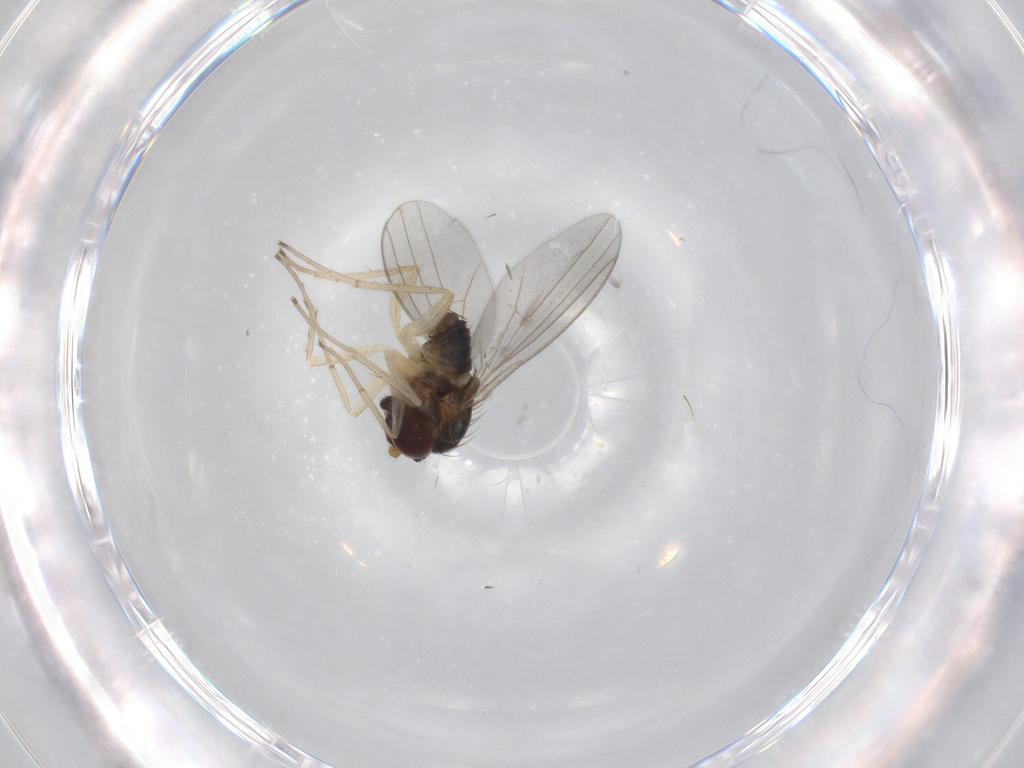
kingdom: Animalia
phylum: Arthropoda
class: Insecta
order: Diptera
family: Dolichopodidae
